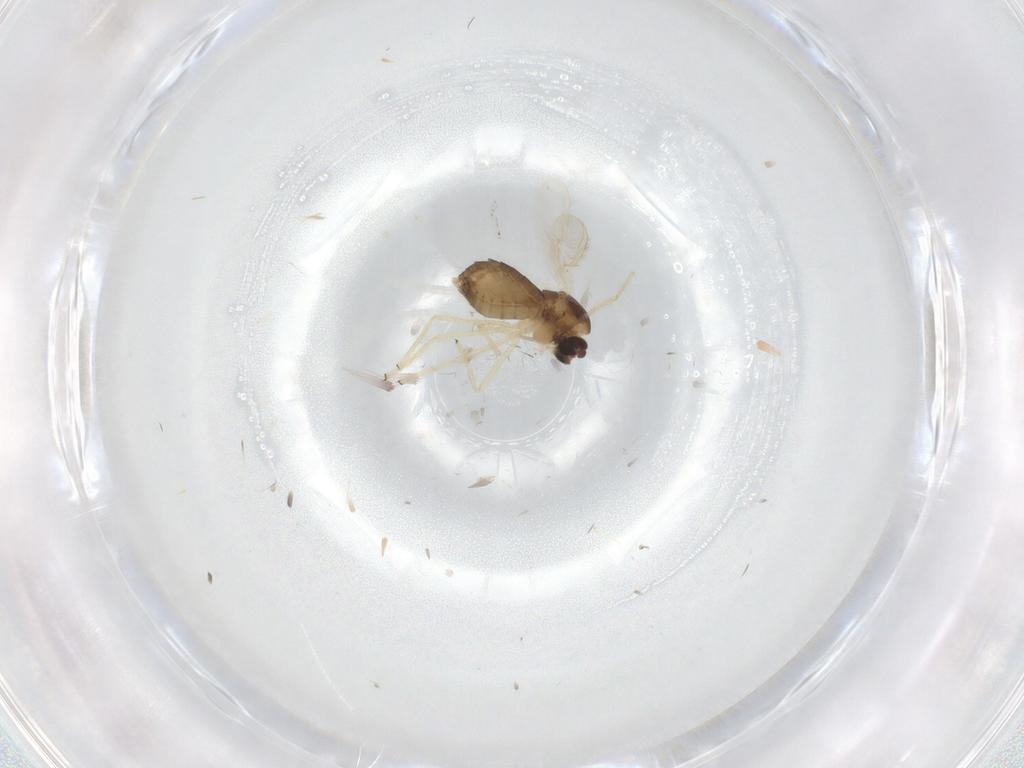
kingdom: Animalia
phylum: Arthropoda
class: Insecta
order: Diptera
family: Chironomidae
